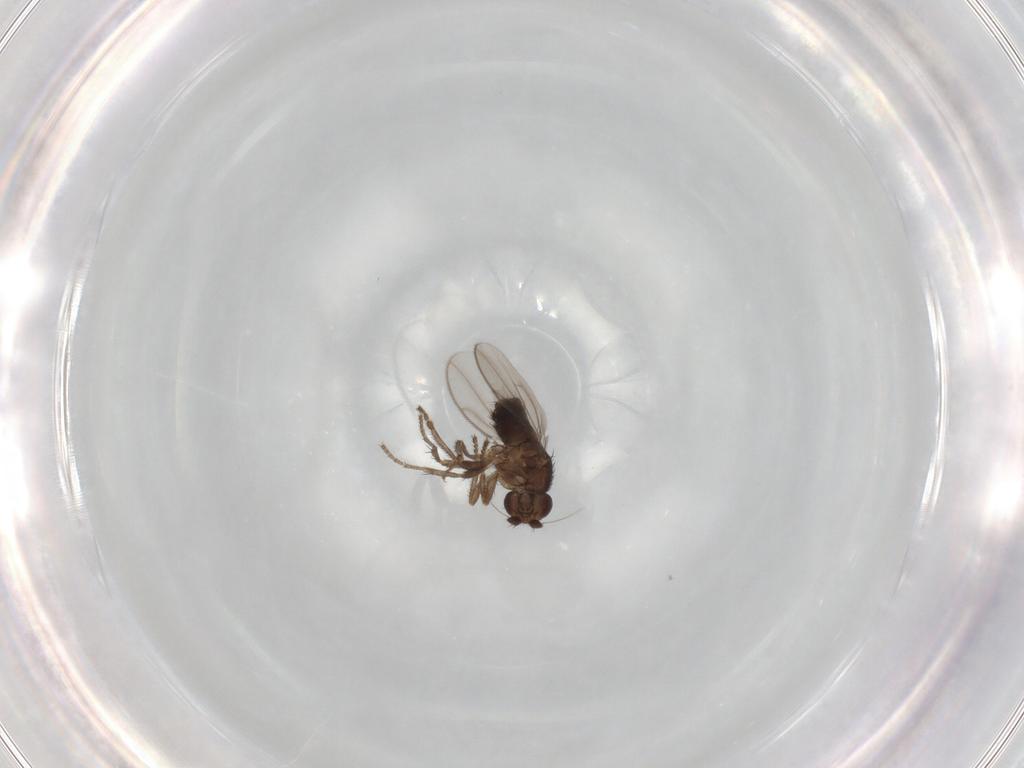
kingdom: Animalia
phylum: Arthropoda
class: Insecta
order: Diptera
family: Sphaeroceridae
